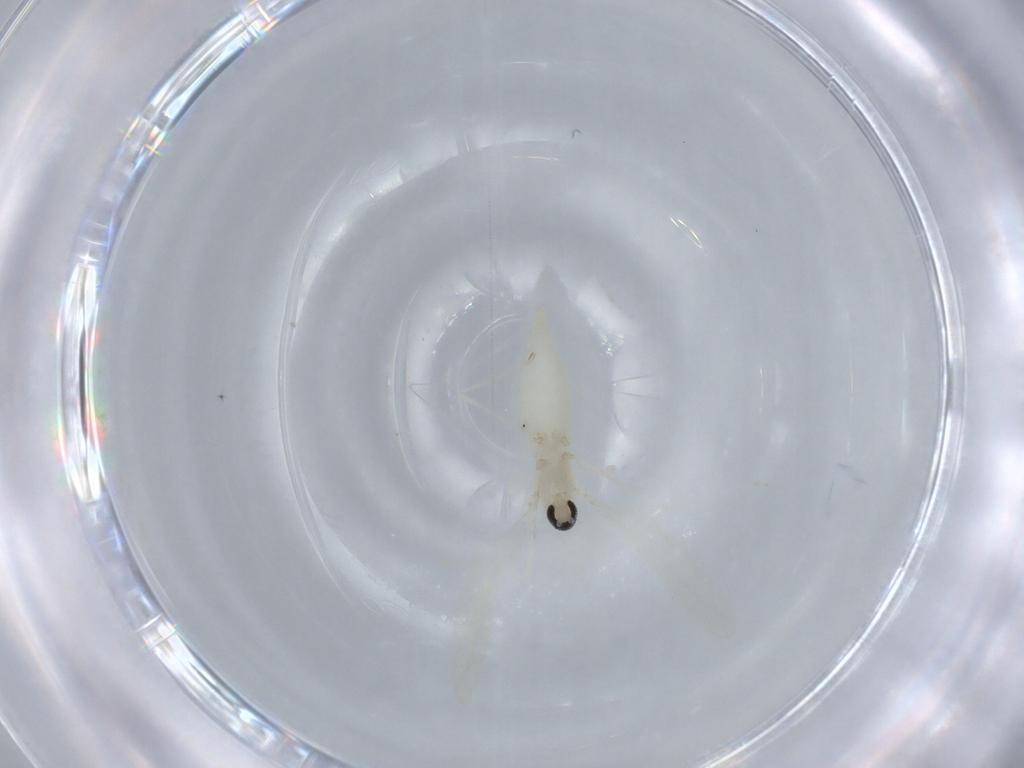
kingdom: Animalia
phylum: Arthropoda
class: Insecta
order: Diptera
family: Cecidomyiidae
